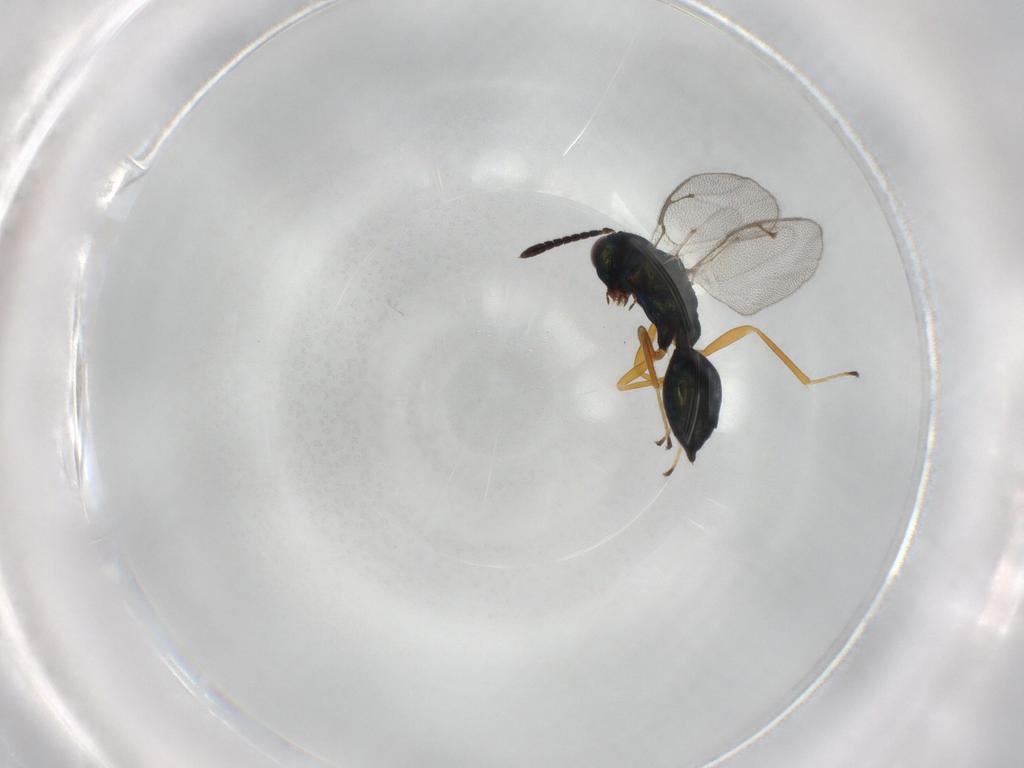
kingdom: Animalia
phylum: Arthropoda
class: Insecta
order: Hymenoptera
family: Pteromalidae
